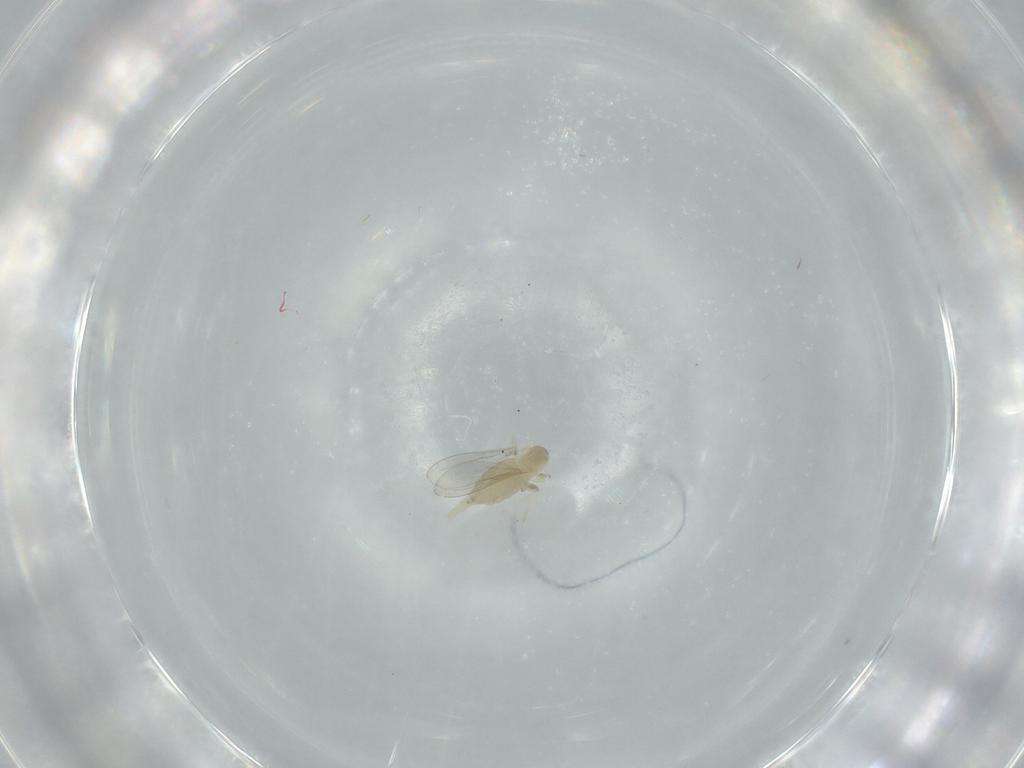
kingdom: Animalia
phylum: Arthropoda
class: Insecta
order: Diptera
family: Cecidomyiidae
